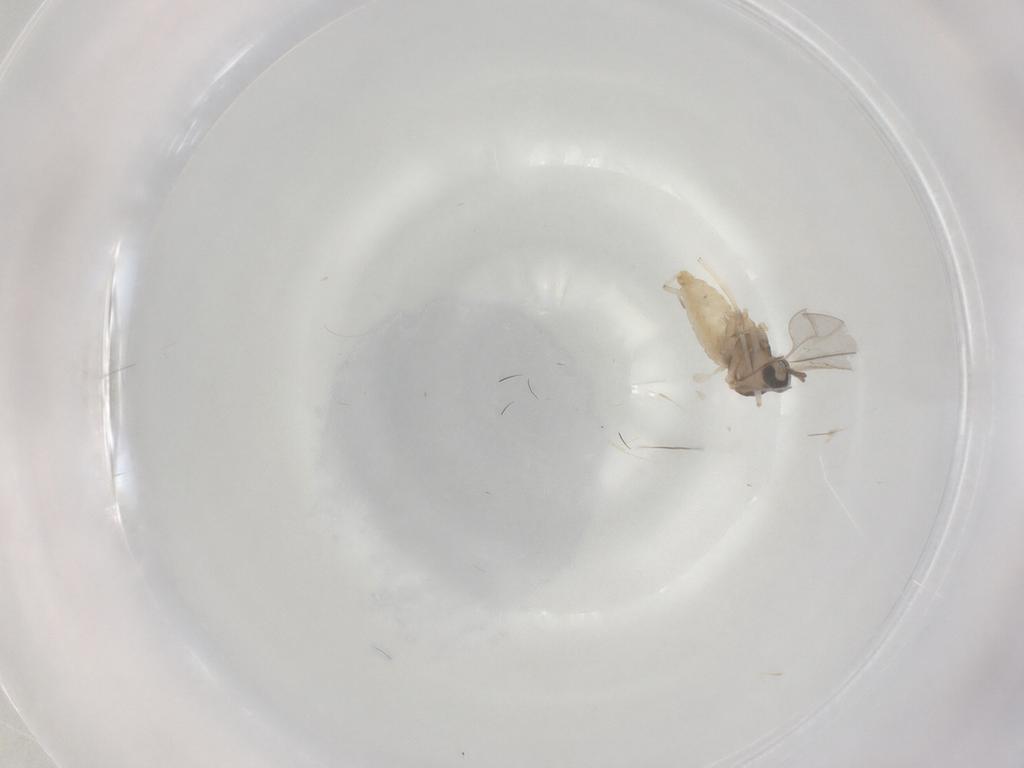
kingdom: Animalia
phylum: Arthropoda
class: Insecta
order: Diptera
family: Cecidomyiidae
